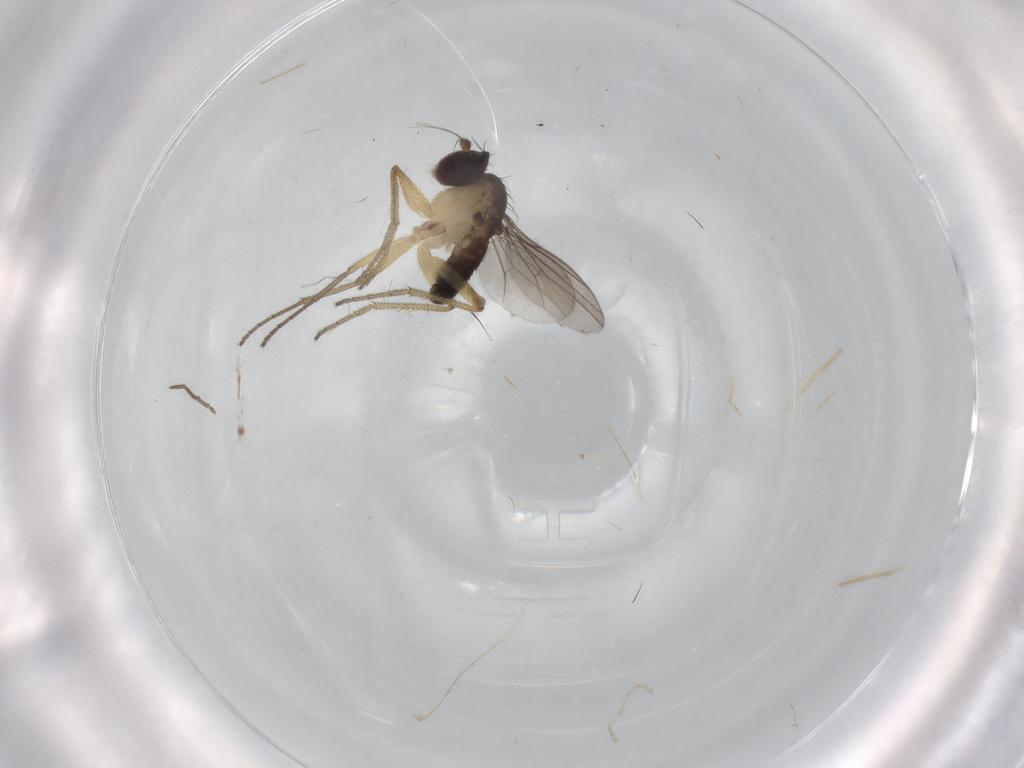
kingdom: Animalia
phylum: Arthropoda
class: Insecta
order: Diptera
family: Dolichopodidae
